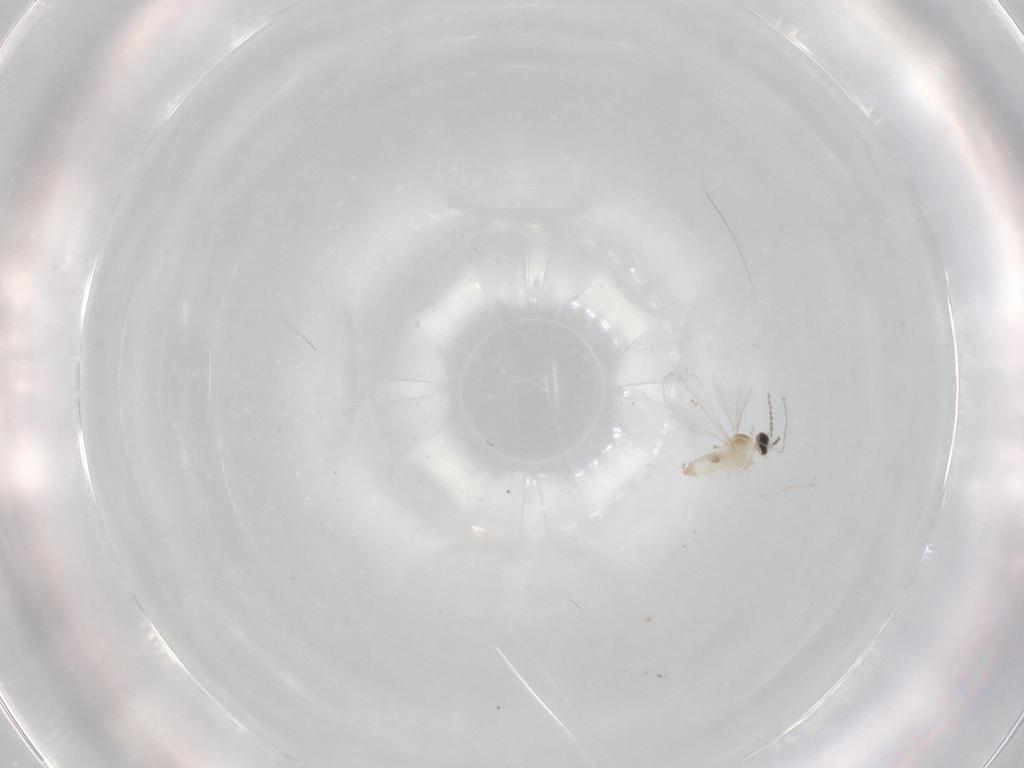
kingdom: Animalia
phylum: Arthropoda
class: Insecta
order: Diptera
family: Cecidomyiidae
